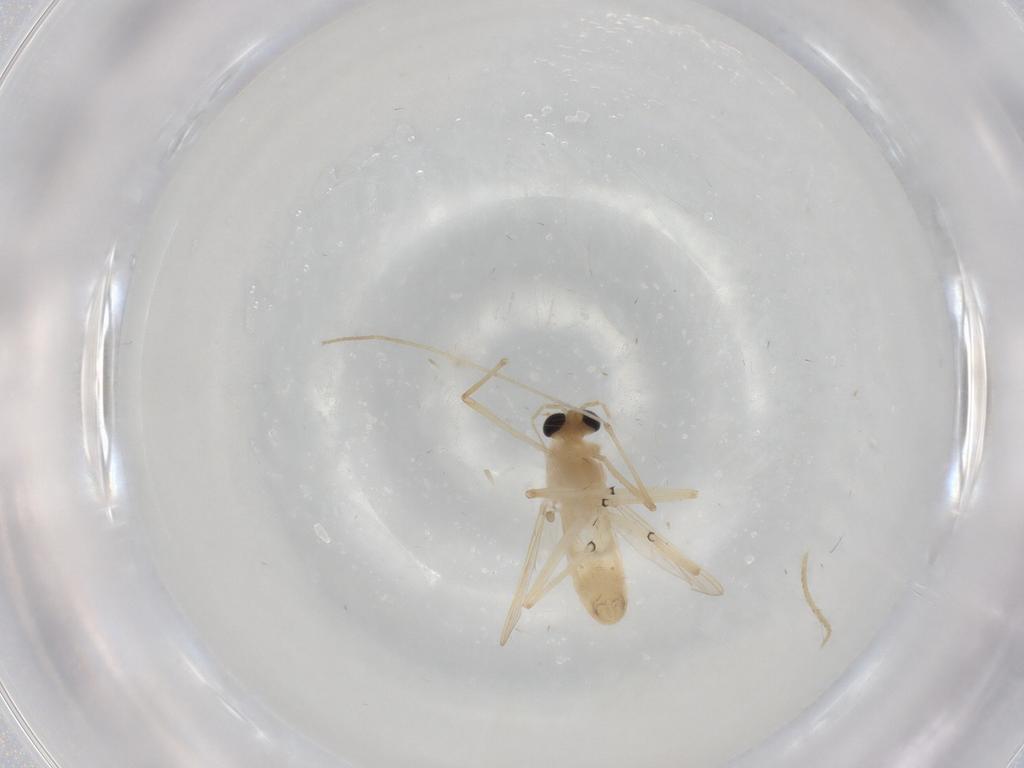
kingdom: Animalia
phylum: Arthropoda
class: Insecta
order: Diptera
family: Chironomidae
